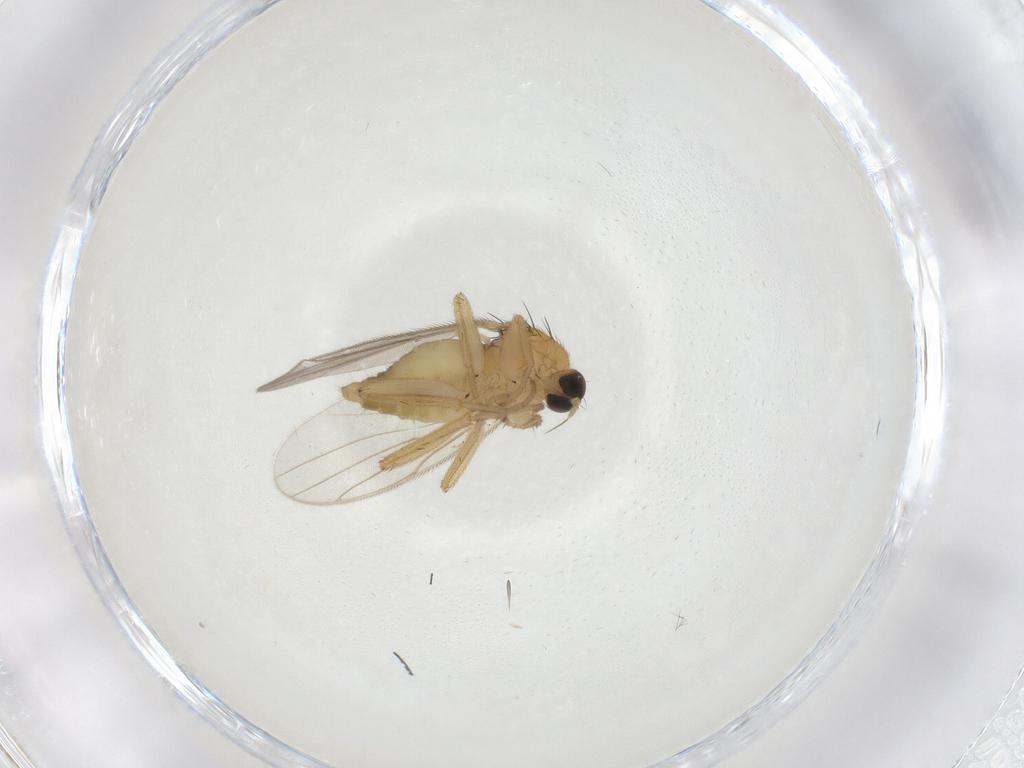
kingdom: Animalia
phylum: Arthropoda
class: Insecta
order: Diptera
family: Hybotidae
